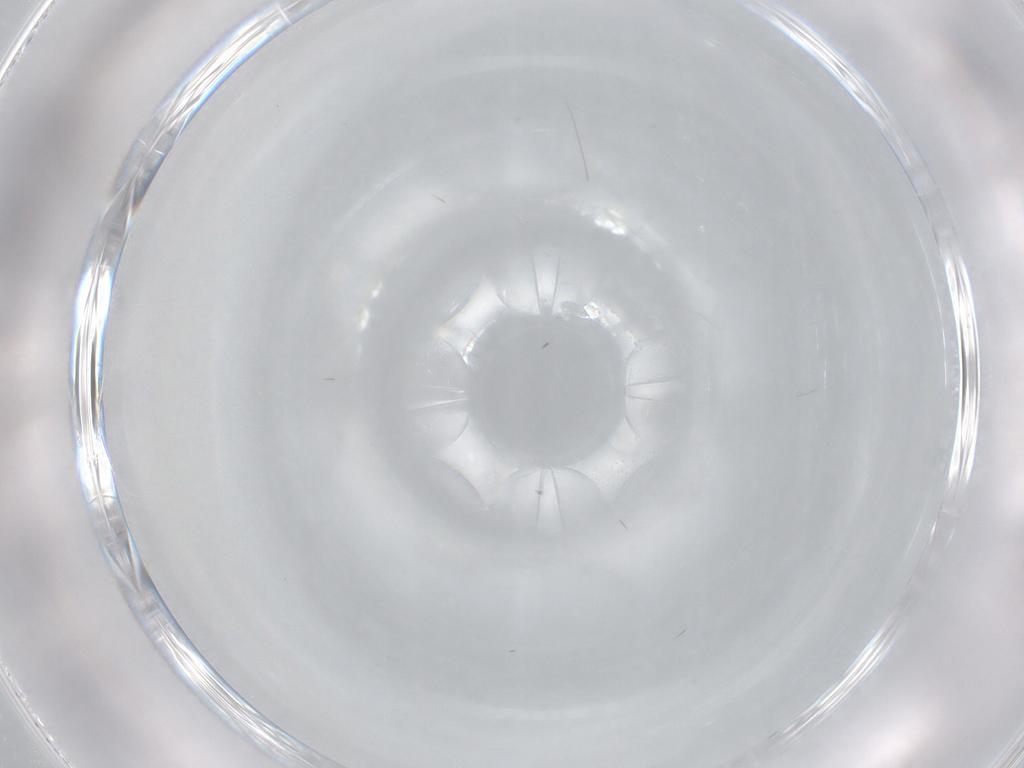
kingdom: Animalia
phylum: Arthropoda
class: Insecta
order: Hymenoptera
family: Mymaridae
